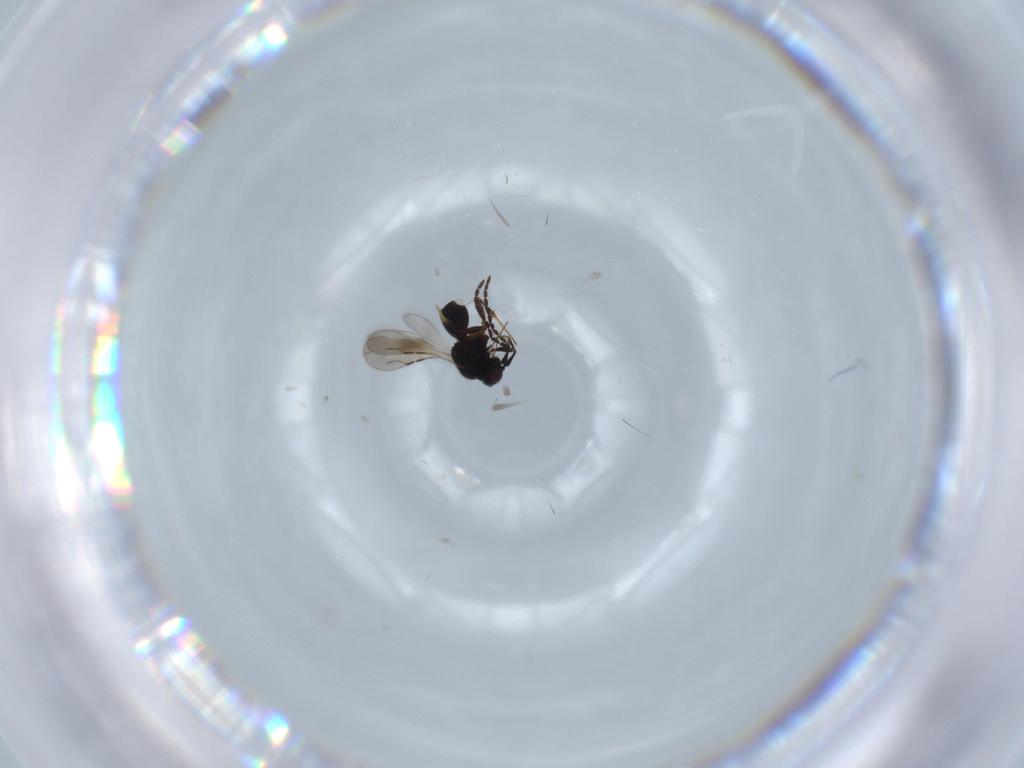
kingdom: Animalia
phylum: Arthropoda
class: Insecta
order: Hymenoptera
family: Ceraphronidae
